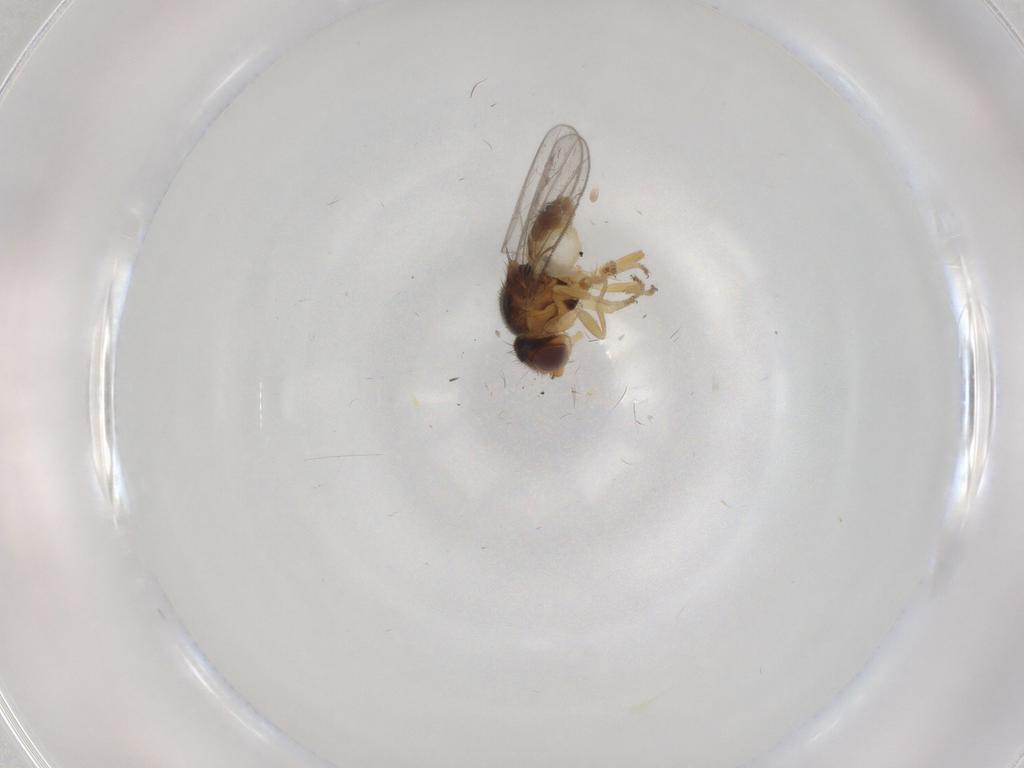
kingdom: Animalia
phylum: Arthropoda
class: Insecta
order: Diptera
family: Chloropidae
